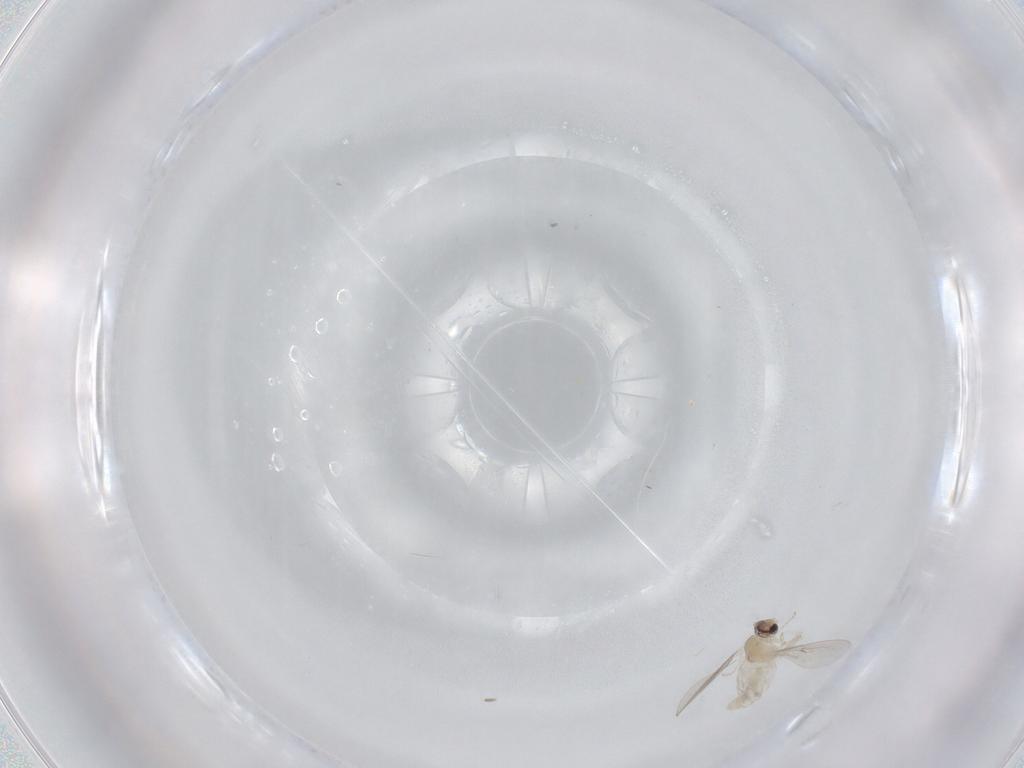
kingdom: Animalia
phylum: Arthropoda
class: Insecta
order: Diptera
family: Cecidomyiidae
